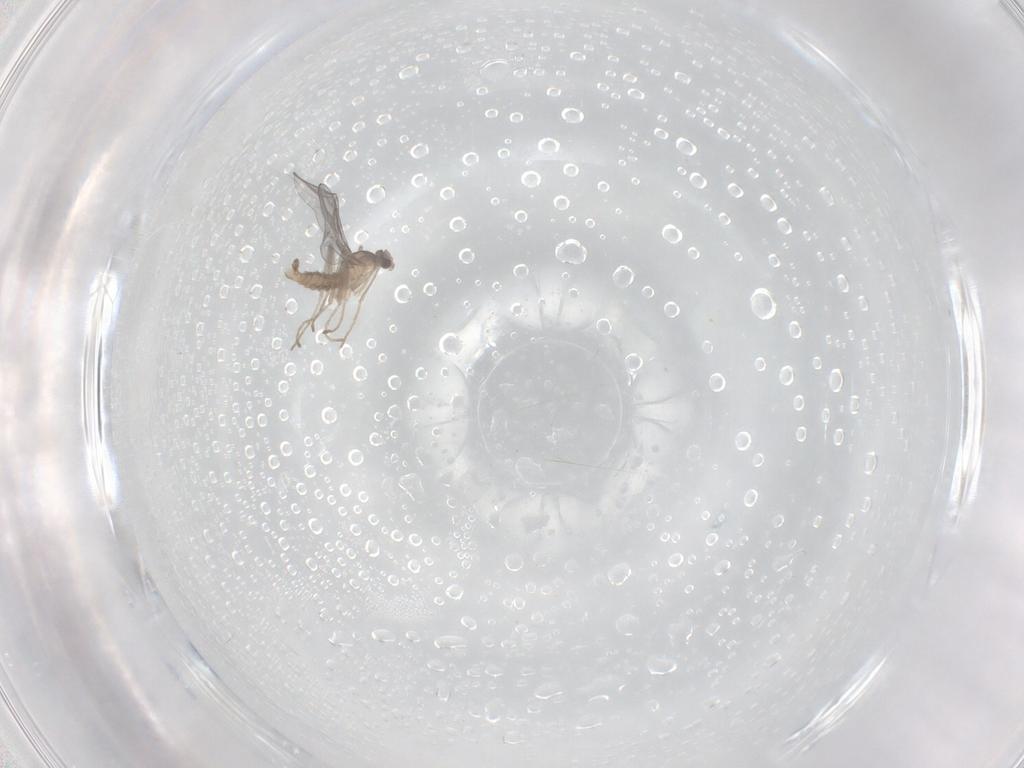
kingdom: Animalia
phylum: Arthropoda
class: Insecta
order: Diptera
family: Cecidomyiidae
